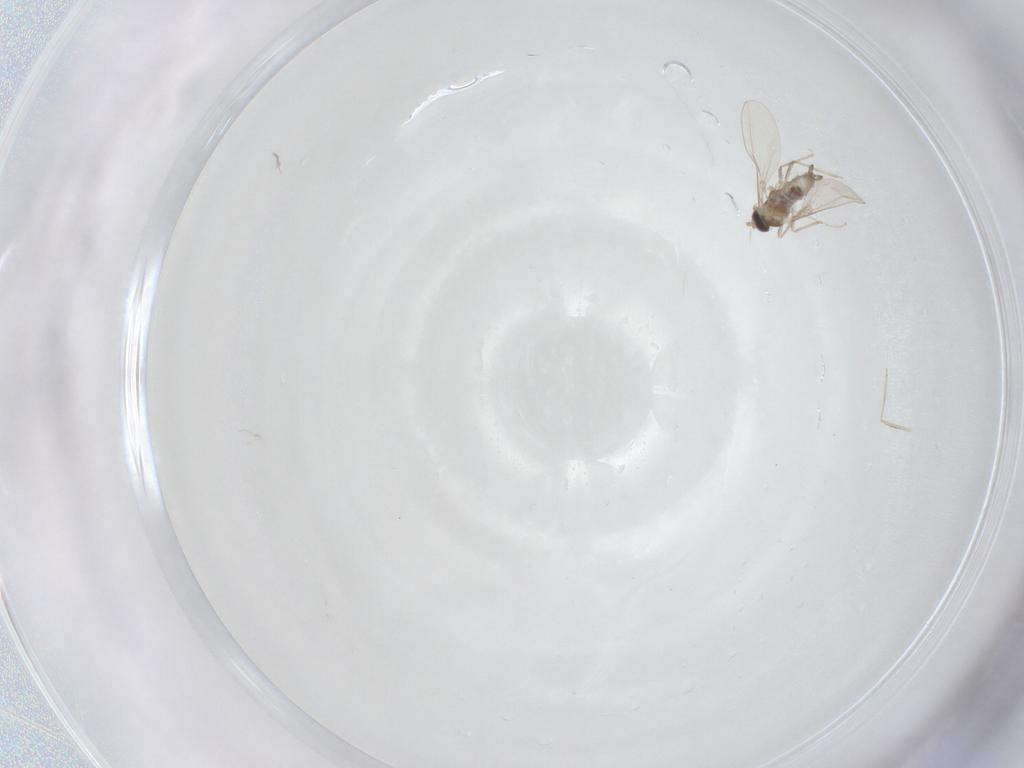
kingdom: Animalia
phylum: Arthropoda
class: Insecta
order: Diptera
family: Cecidomyiidae
